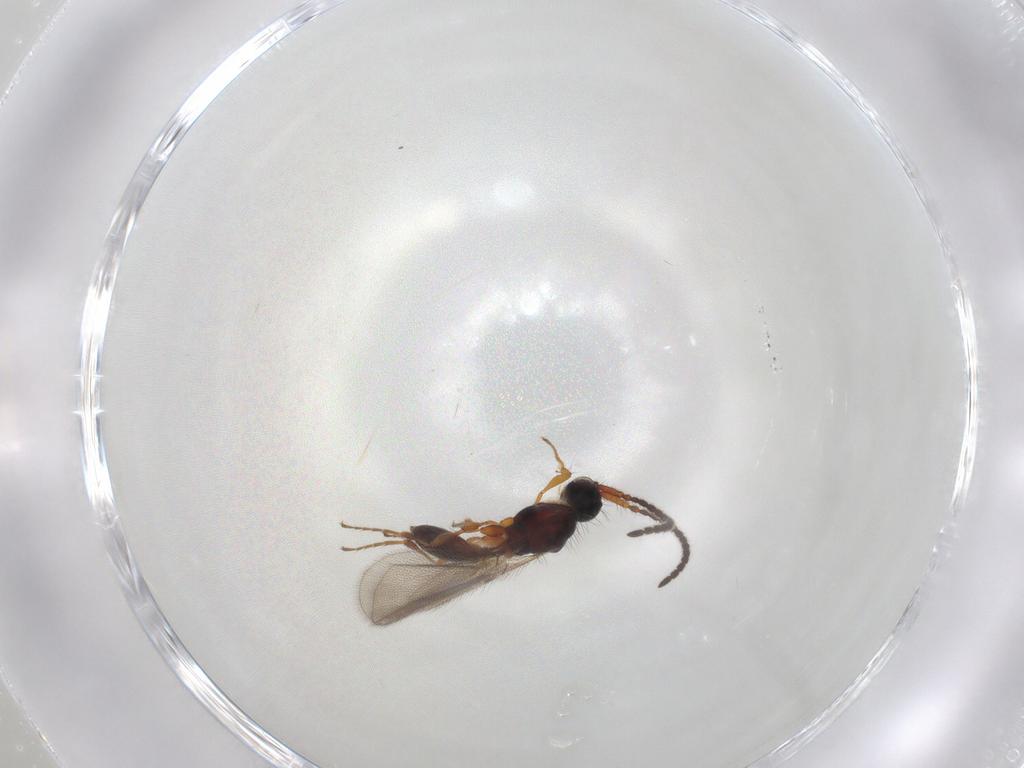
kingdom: Animalia
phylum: Arthropoda
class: Insecta
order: Hymenoptera
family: Diapriidae
